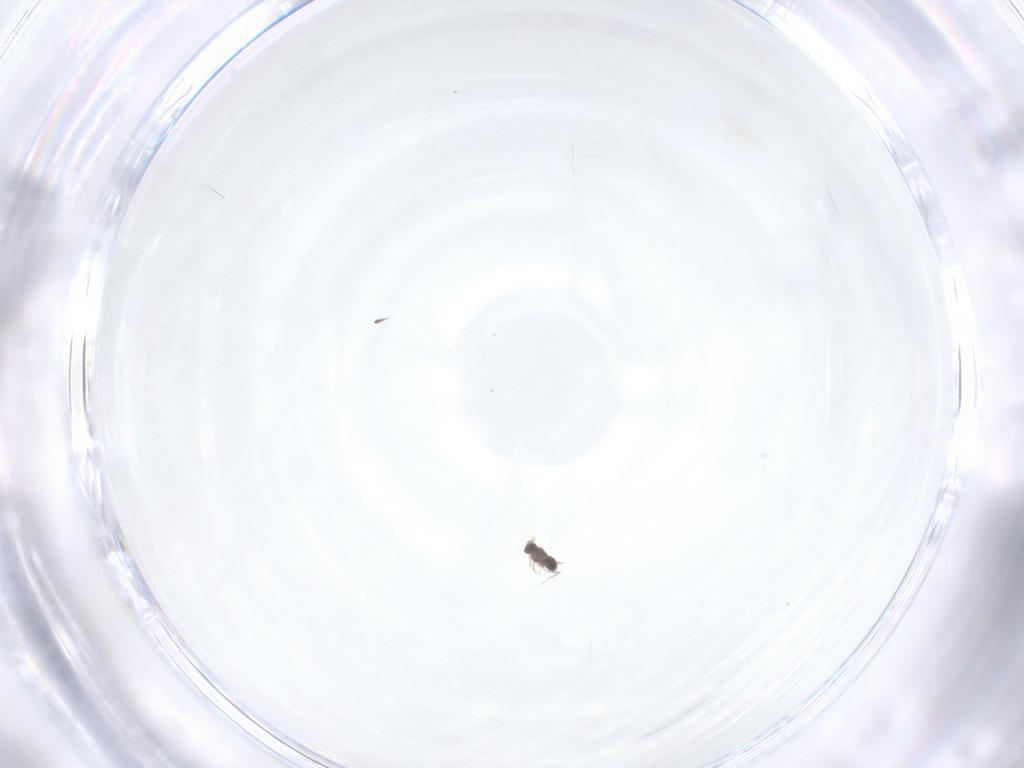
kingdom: Animalia
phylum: Arthropoda
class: Insecta
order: Hymenoptera
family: Mymaridae
